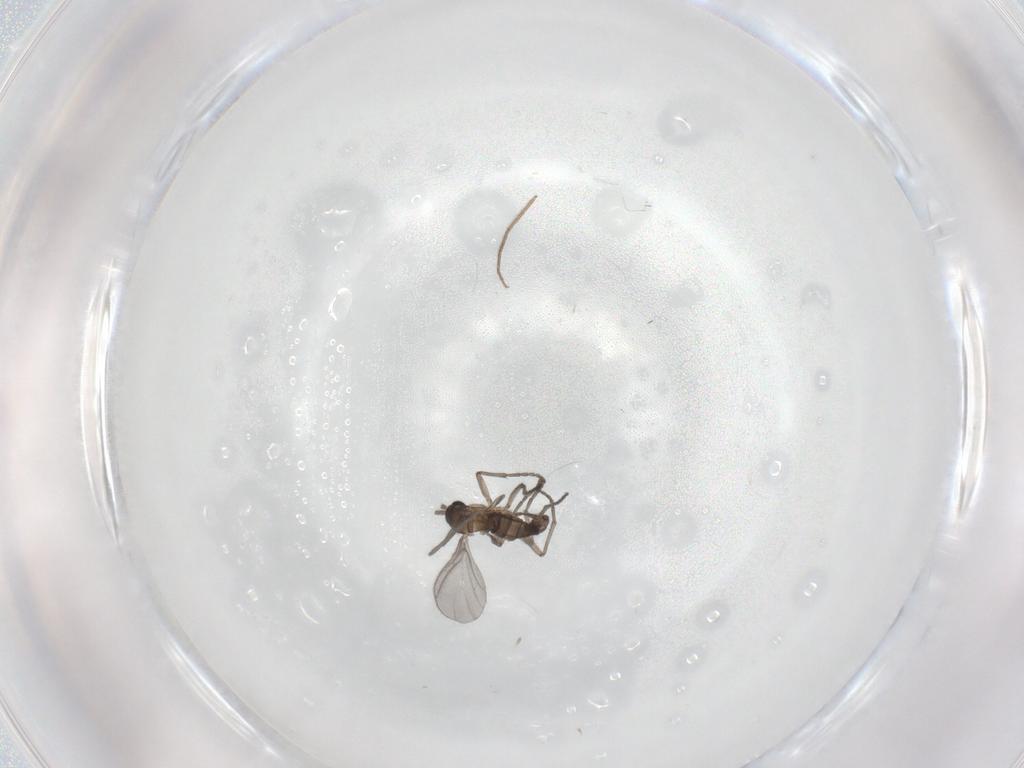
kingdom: Animalia
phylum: Arthropoda
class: Insecta
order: Diptera
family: Sciaridae
